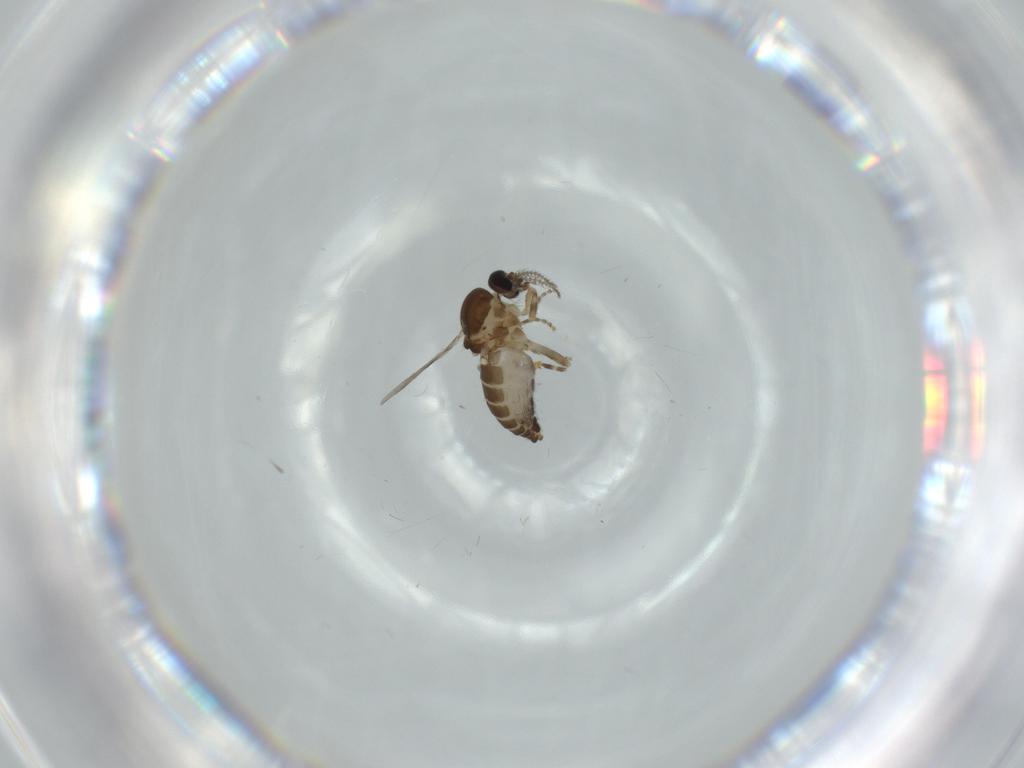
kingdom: Animalia
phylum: Arthropoda
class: Insecta
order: Diptera
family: Ceratopogonidae
